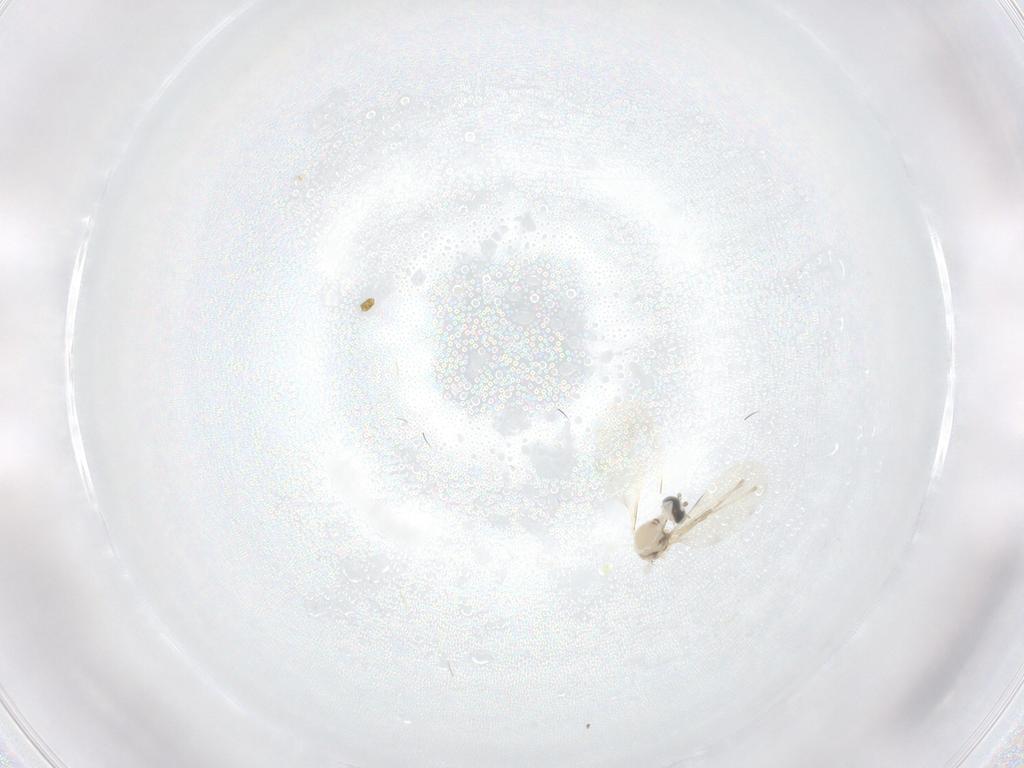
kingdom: Animalia
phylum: Arthropoda
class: Insecta
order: Diptera
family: Cecidomyiidae
